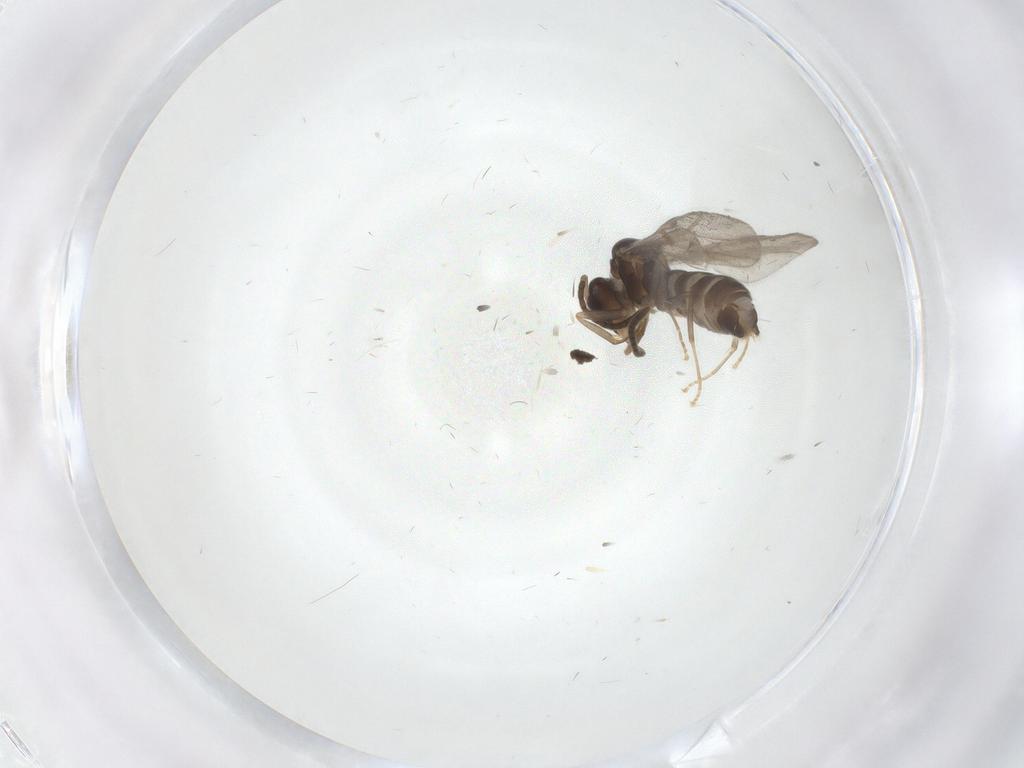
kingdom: Animalia
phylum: Arthropoda
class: Insecta
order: Hymenoptera
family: Formicidae
